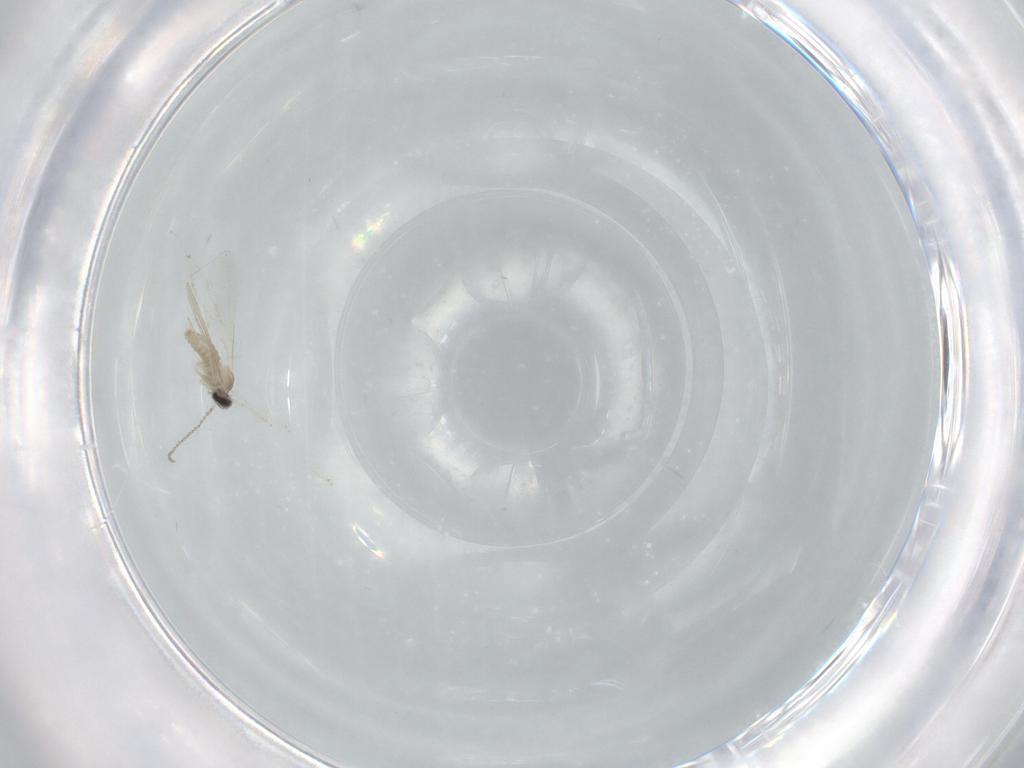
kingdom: Animalia
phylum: Arthropoda
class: Insecta
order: Diptera
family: Cecidomyiidae
